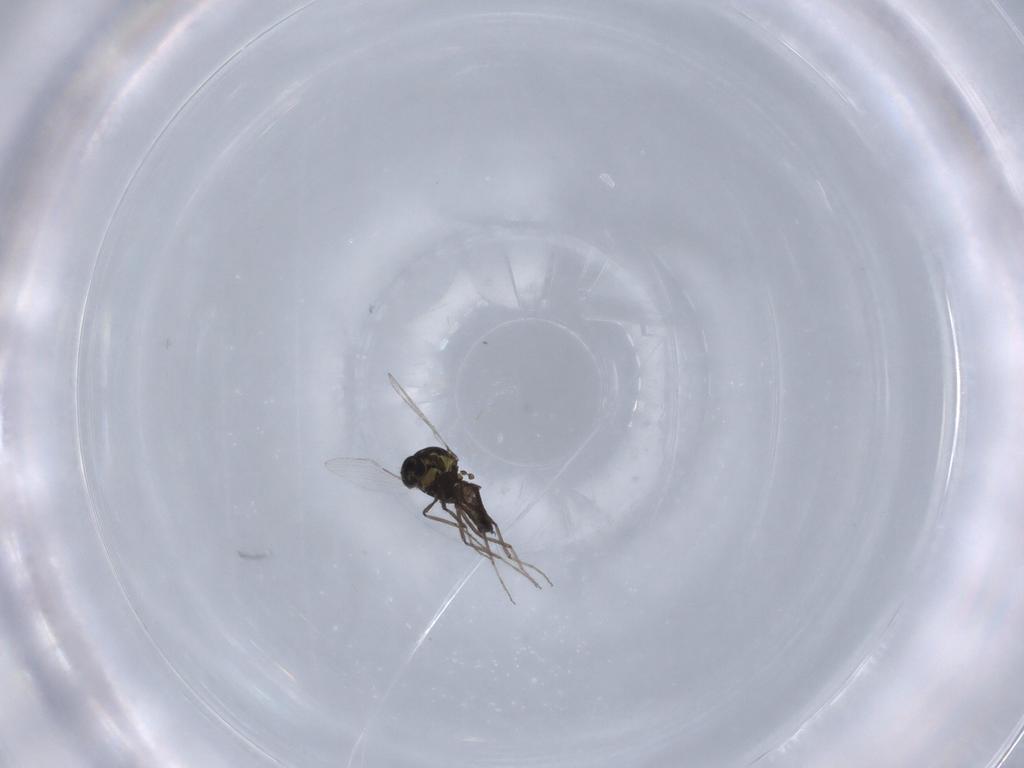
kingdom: Animalia
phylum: Arthropoda
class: Insecta
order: Diptera
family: Ceratopogonidae
